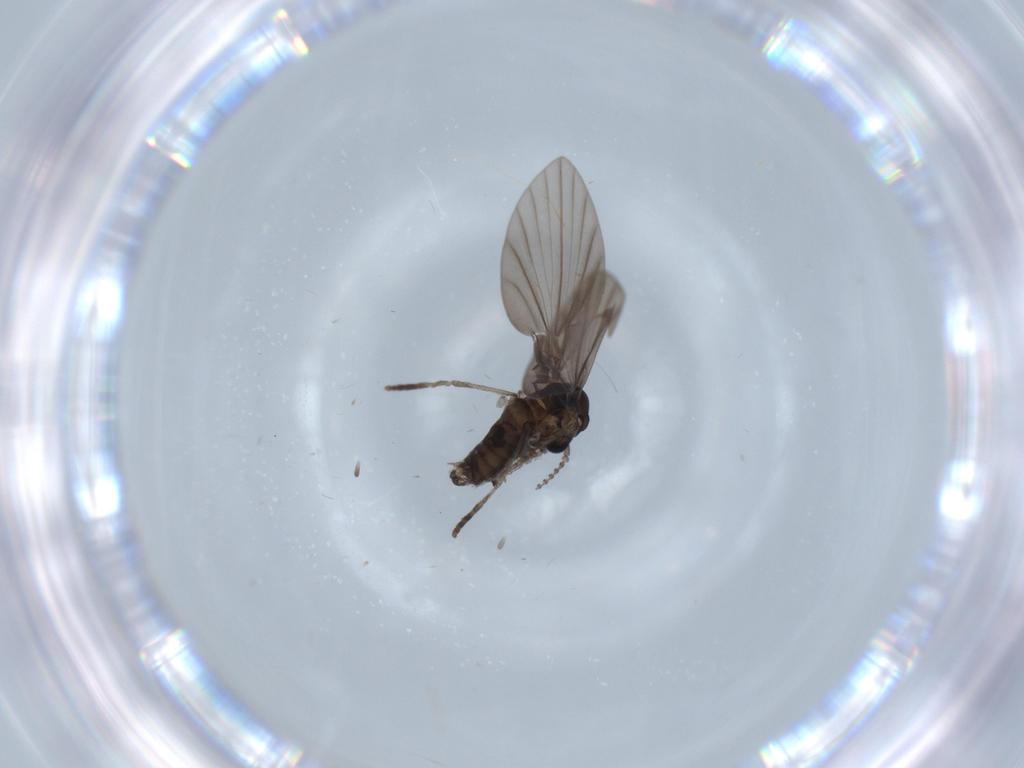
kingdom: Animalia
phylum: Arthropoda
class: Insecta
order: Diptera
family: Psychodidae
